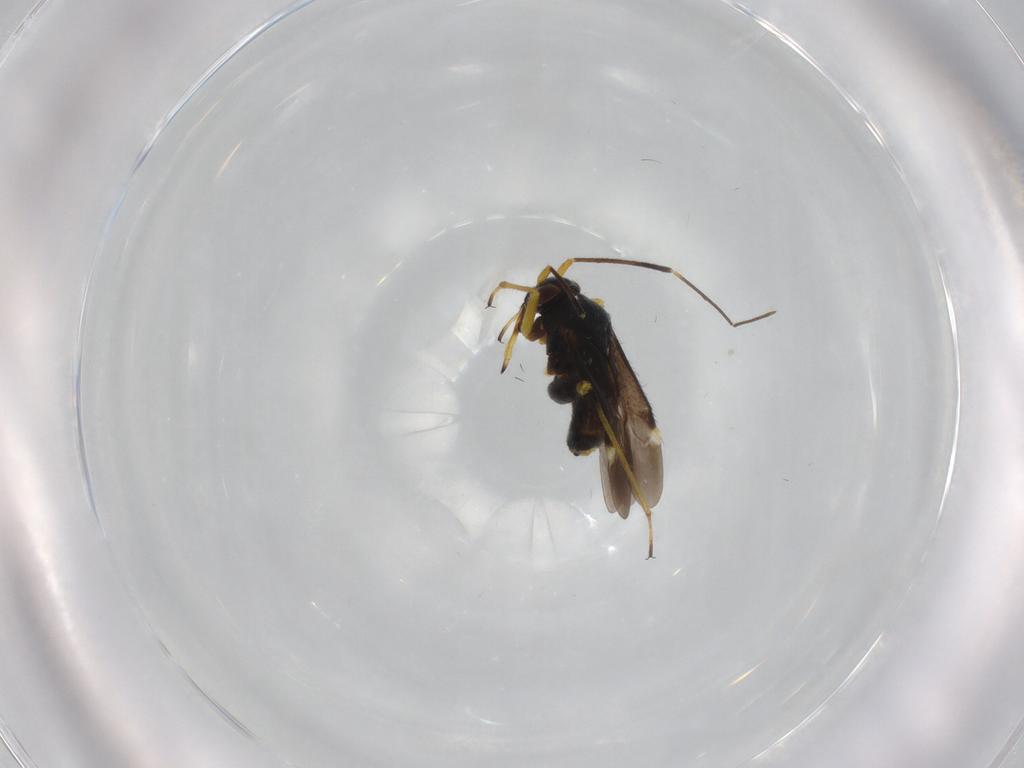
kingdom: Animalia
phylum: Arthropoda
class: Insecta
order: Hemiptera
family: Miridae
